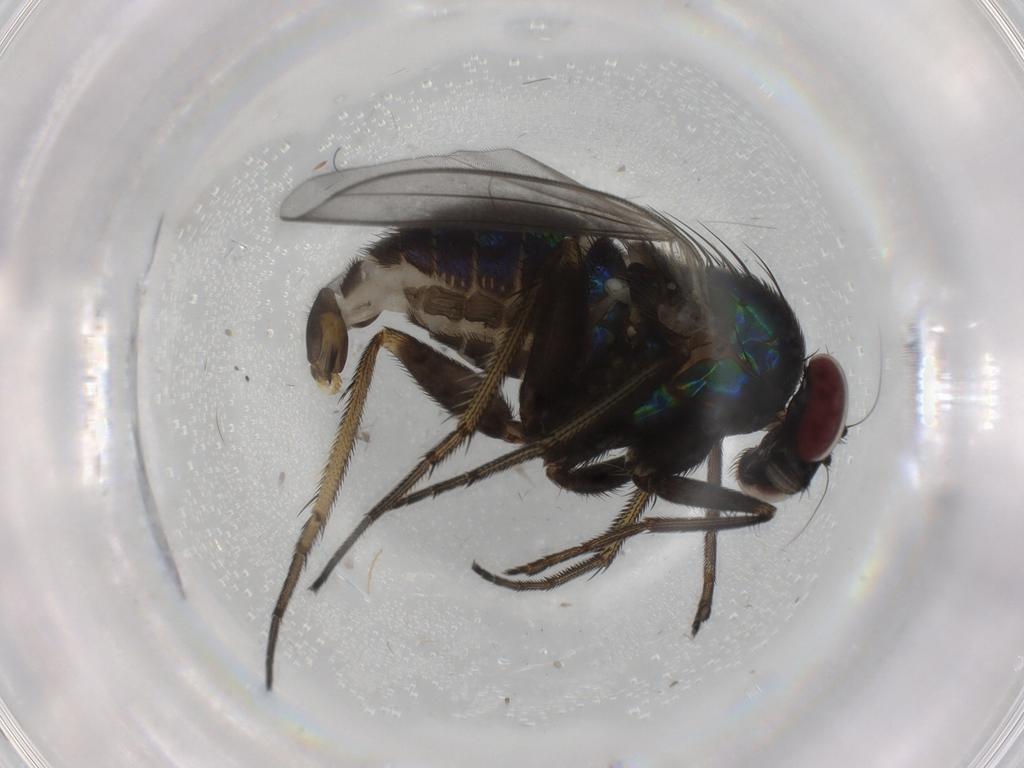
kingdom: Animalia
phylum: Arthropoda
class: Insecta
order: Diptera
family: Dolichopodidae
